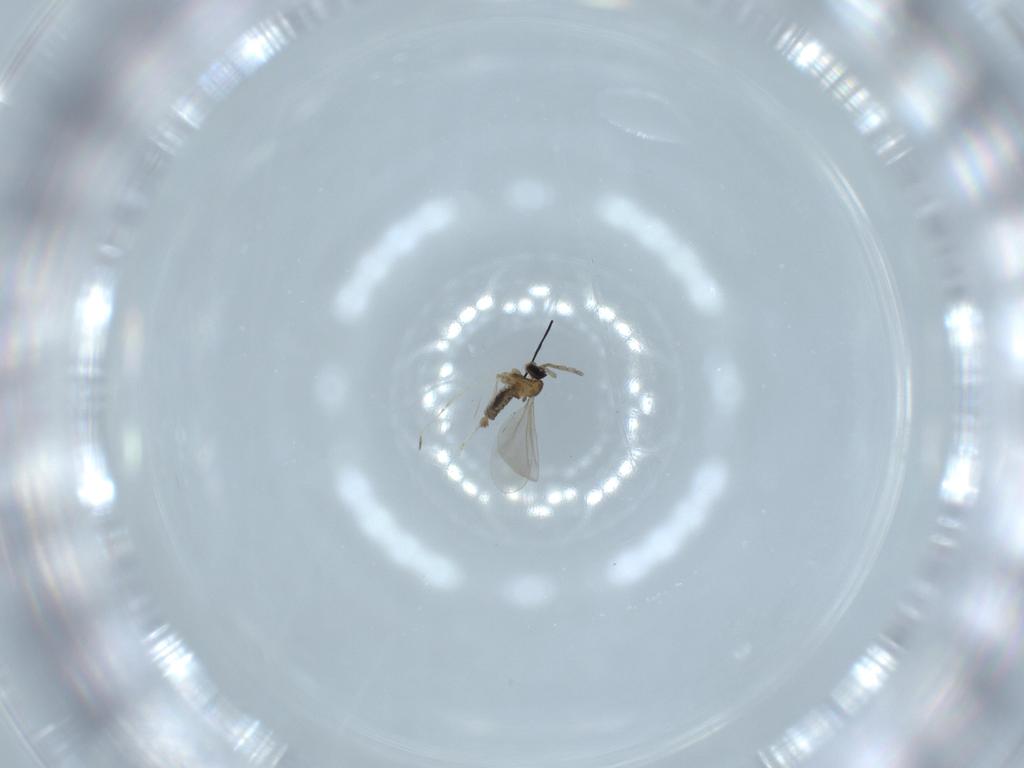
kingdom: Animalia
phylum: Arthropoda
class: Insecta
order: Diptera
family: Cecidomyiidae
